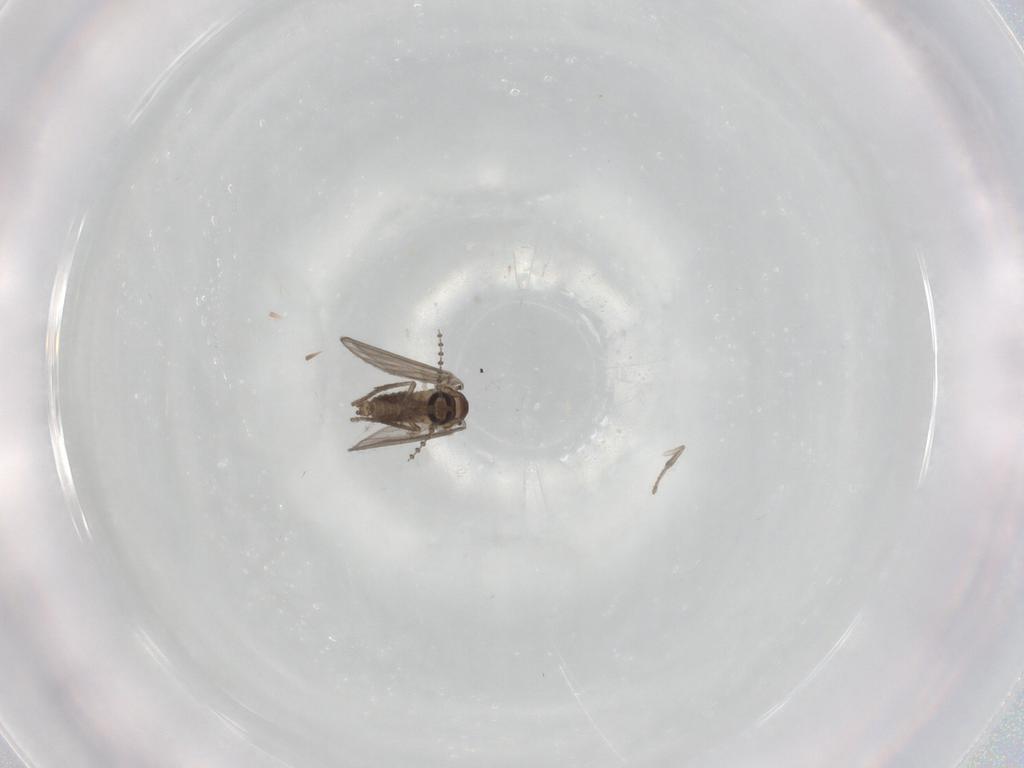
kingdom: Animalia
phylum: Arthropoda
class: Insecta
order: Diptera
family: Psychodidae
